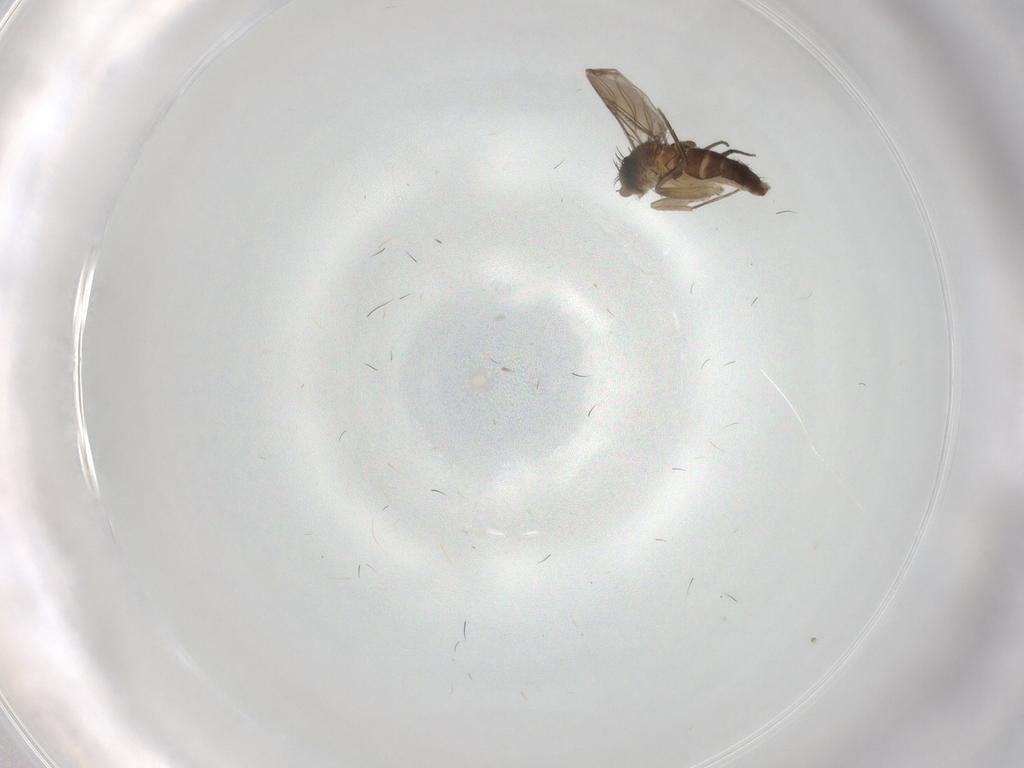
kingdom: Animalia
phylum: Arthropoda
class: Insecta
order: Diptera
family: Phoridae
